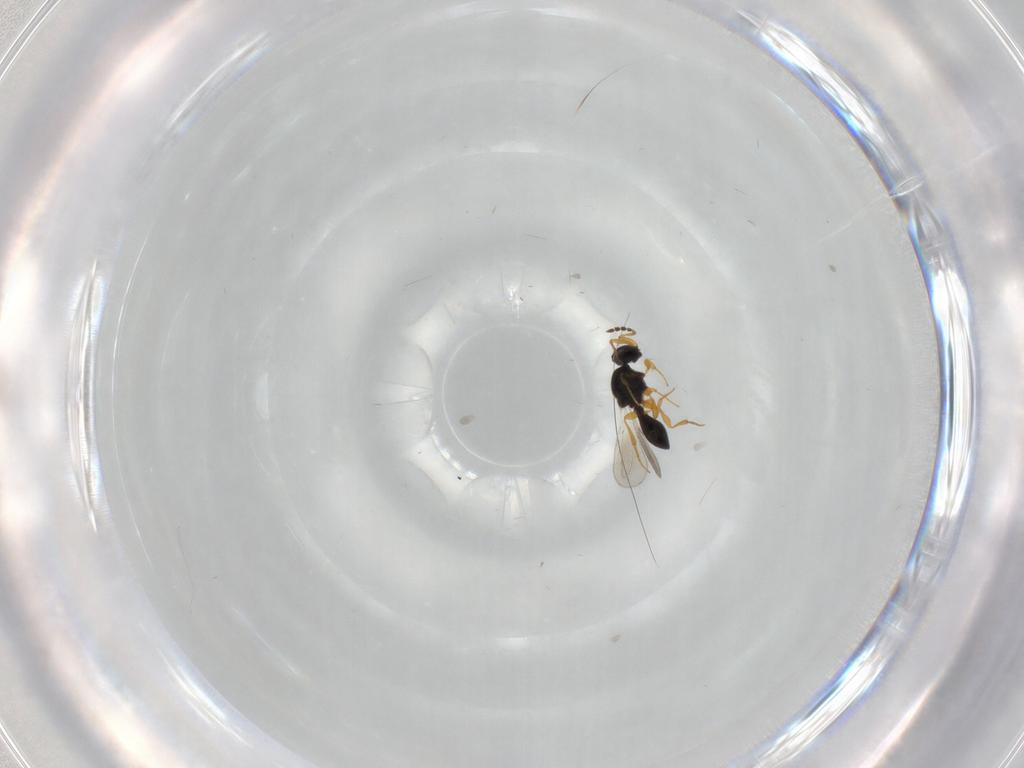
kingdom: Animalia
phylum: Arthropoda
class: Insecta
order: Hymenoptera
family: Platygastridae
